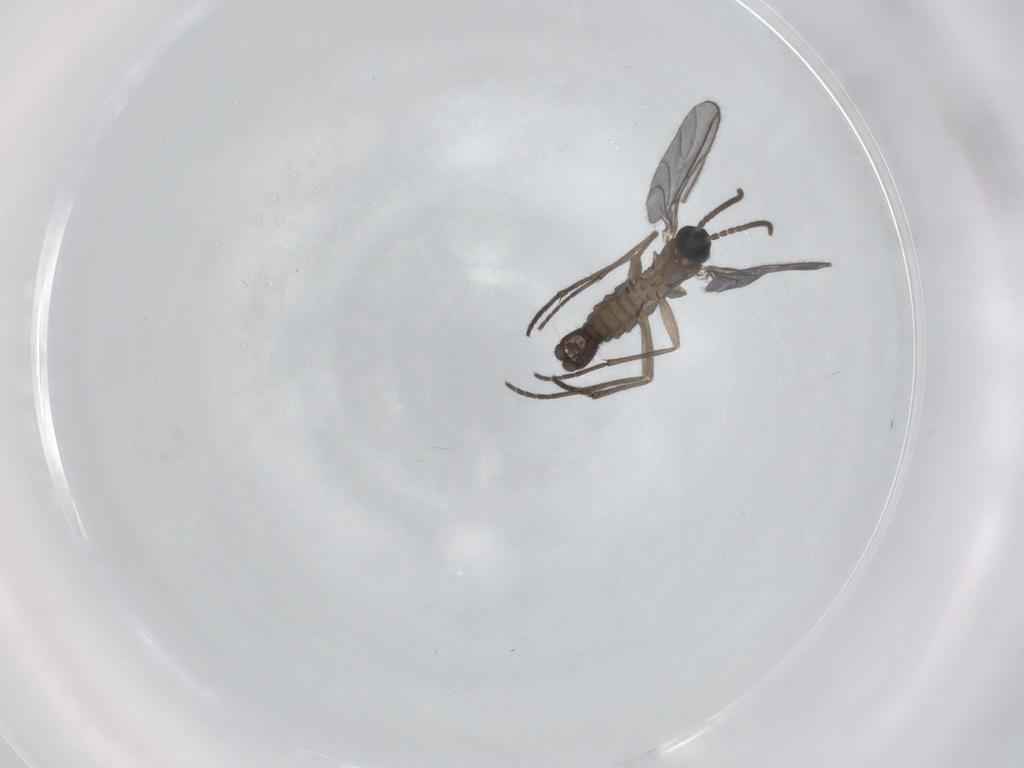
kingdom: Animalia
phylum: Arthropoda
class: Insecta
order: Diptera
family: Sciaridae
